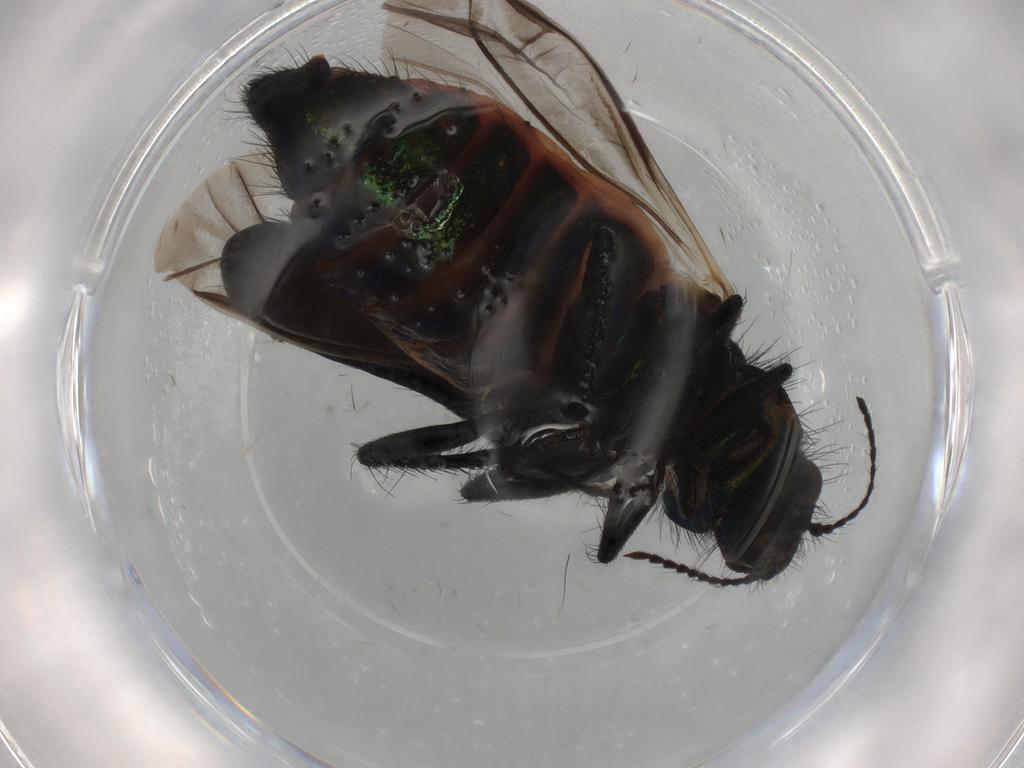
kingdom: Animalia
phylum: Arthropoda
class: Insecta
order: Coleoptera
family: Melyridae
